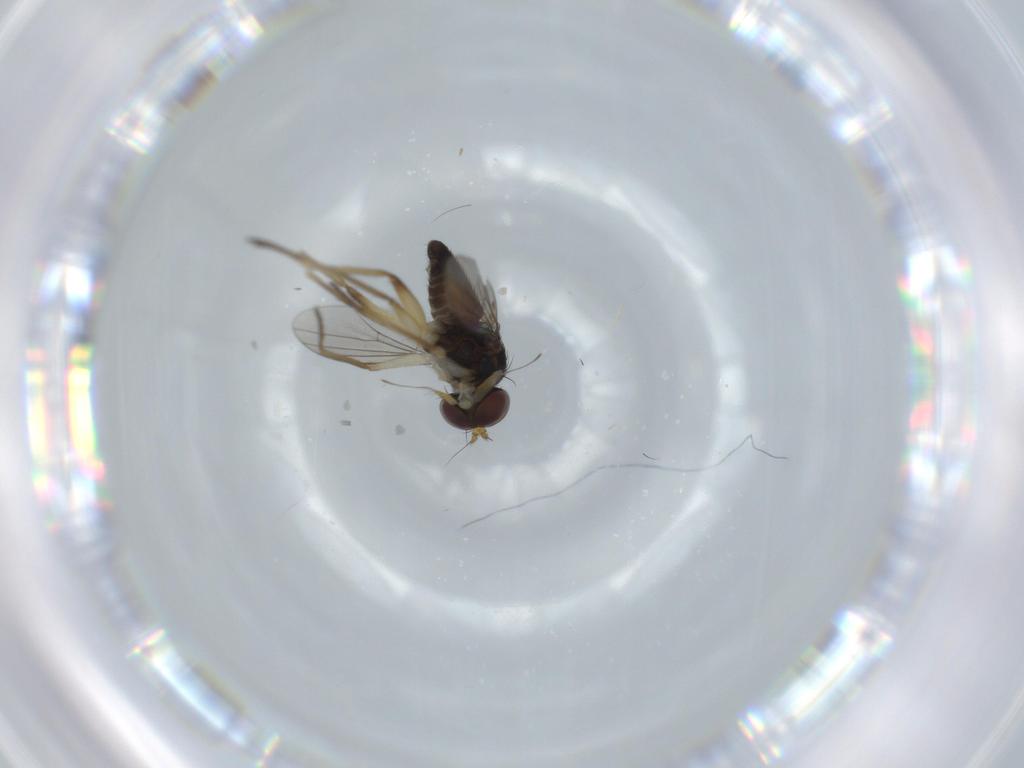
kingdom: Animalia
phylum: Arthropoda
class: Insecta
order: Diptera
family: Dolichopodidae
